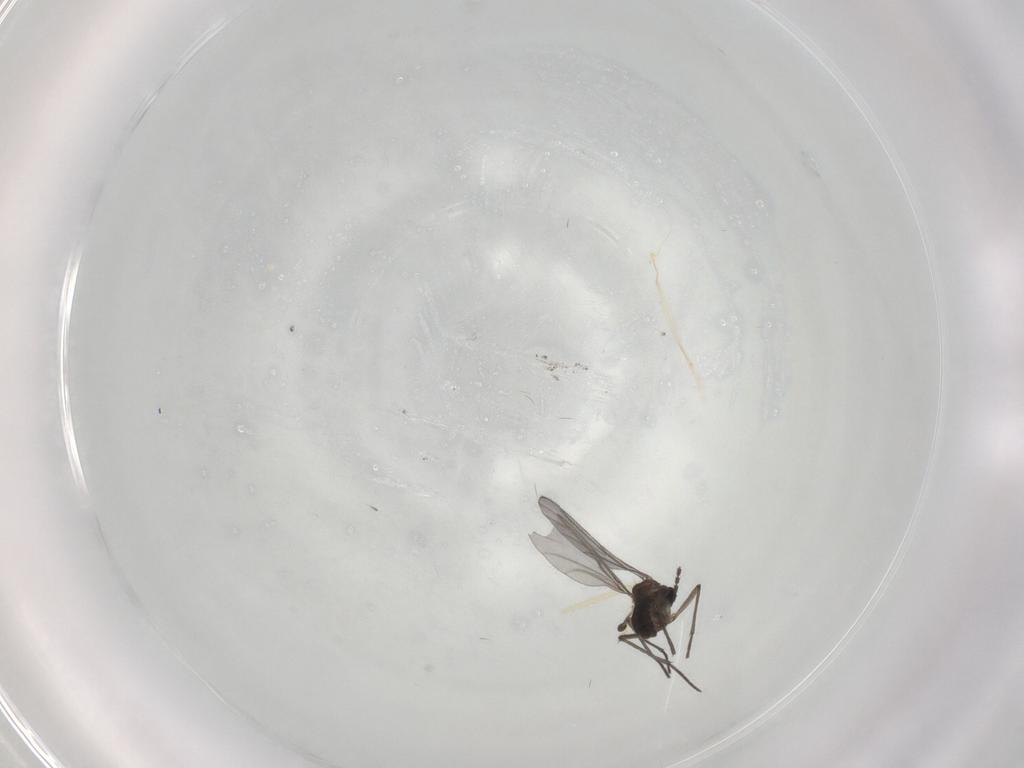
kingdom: Animalia
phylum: Arthropoda
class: Insecta
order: Diptera
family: Chironomidae
